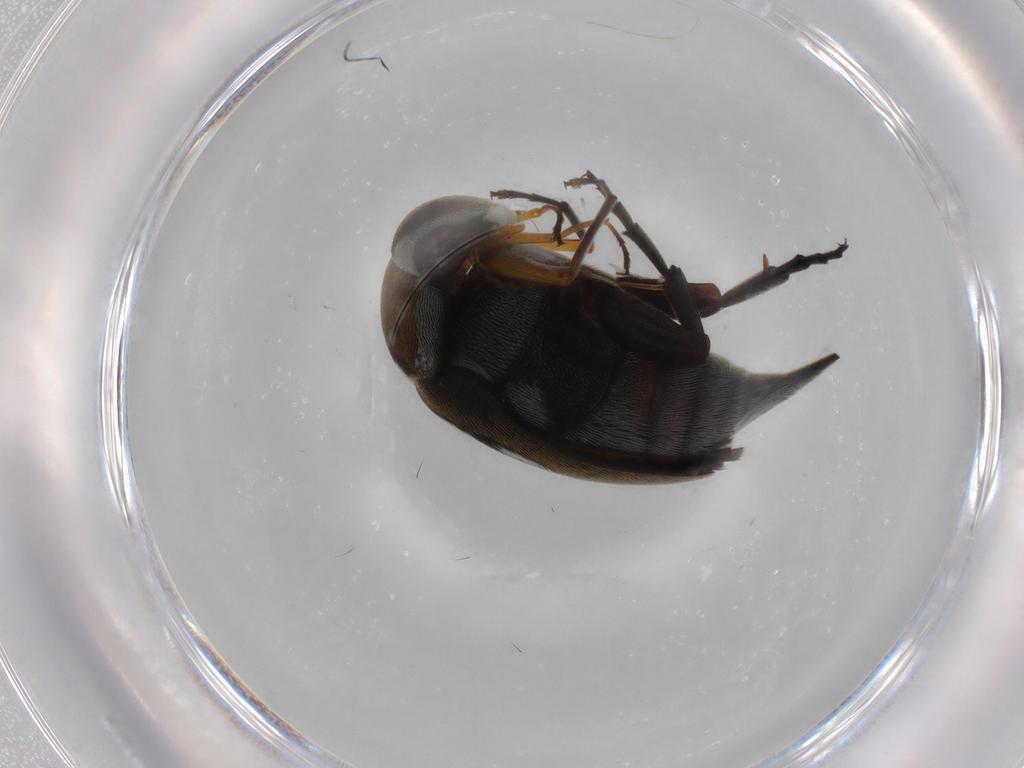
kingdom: Animalia
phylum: Arthropoda
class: Insecta
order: Coleoptera
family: Mordellidae
